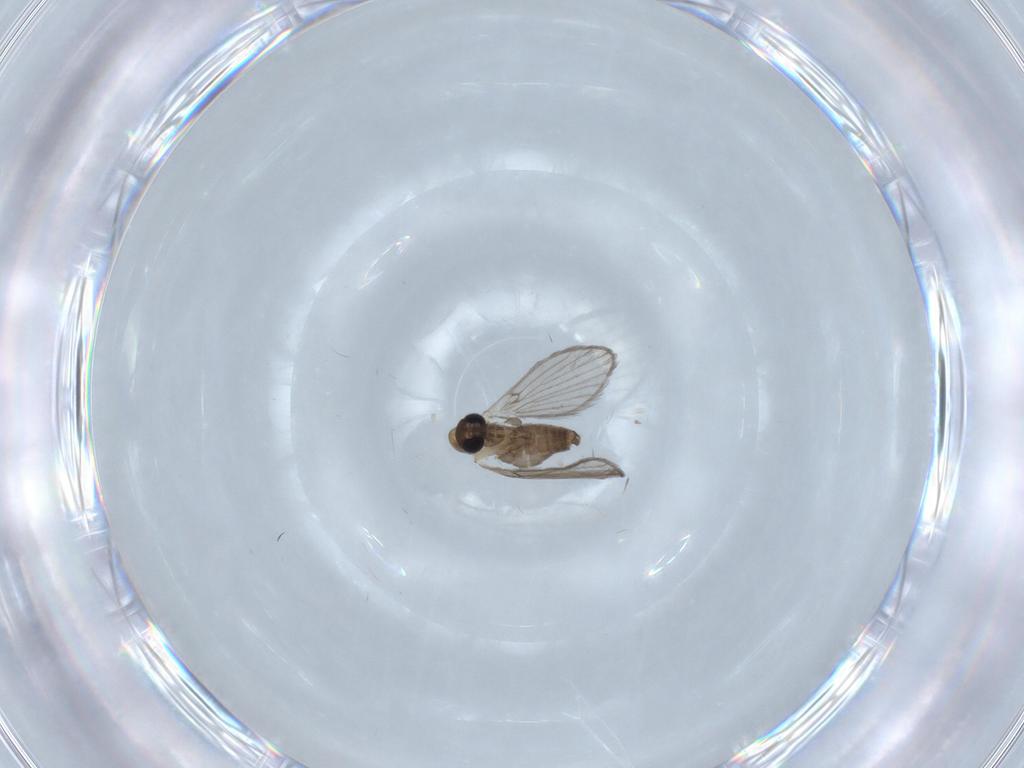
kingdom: Animalia
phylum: Arthropoda
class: Insecta
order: Diptera
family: Psychodidae
